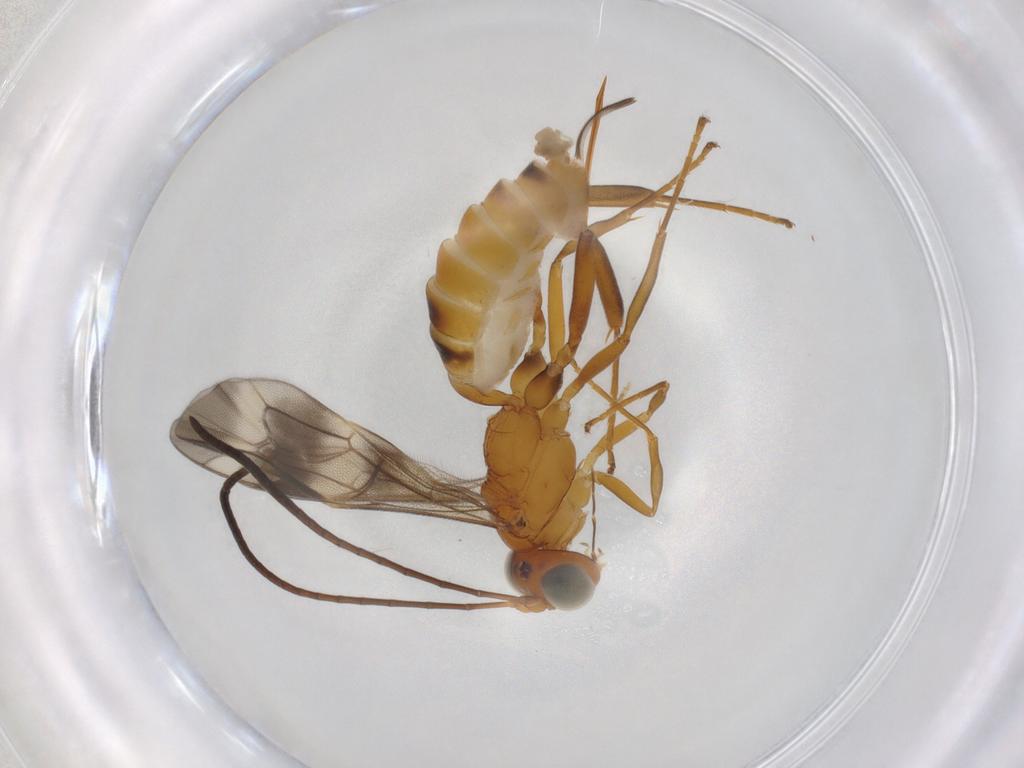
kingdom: Animalia
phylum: Arthropoda
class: Insecta
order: Hymenoptera
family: Ichneumonidae
